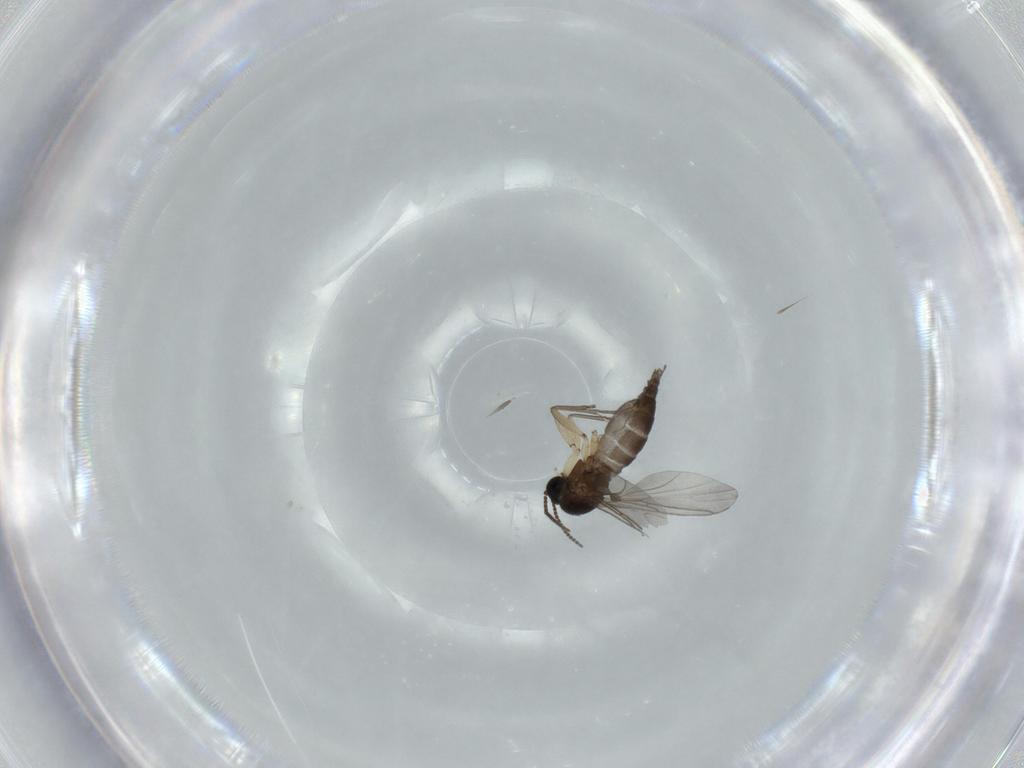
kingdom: Animalia
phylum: Arthropoda
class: Insecta
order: Diptera
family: Sciaridae
